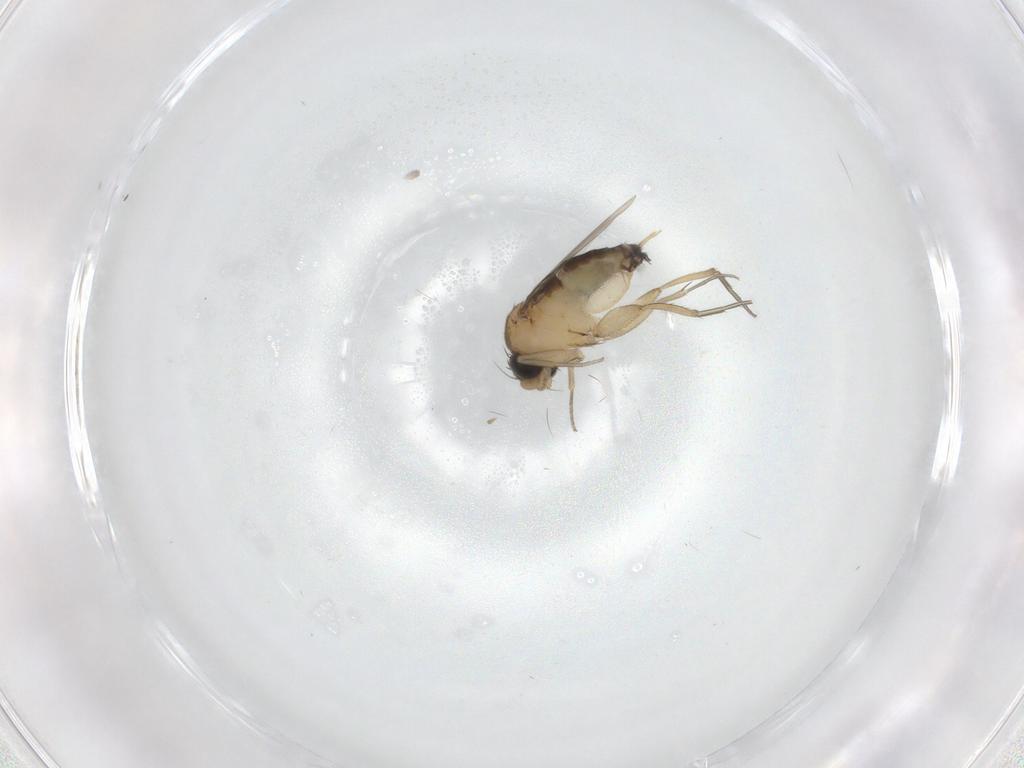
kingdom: Animalia
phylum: Arthropoda
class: Insecta
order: Diptera
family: Phoridae
